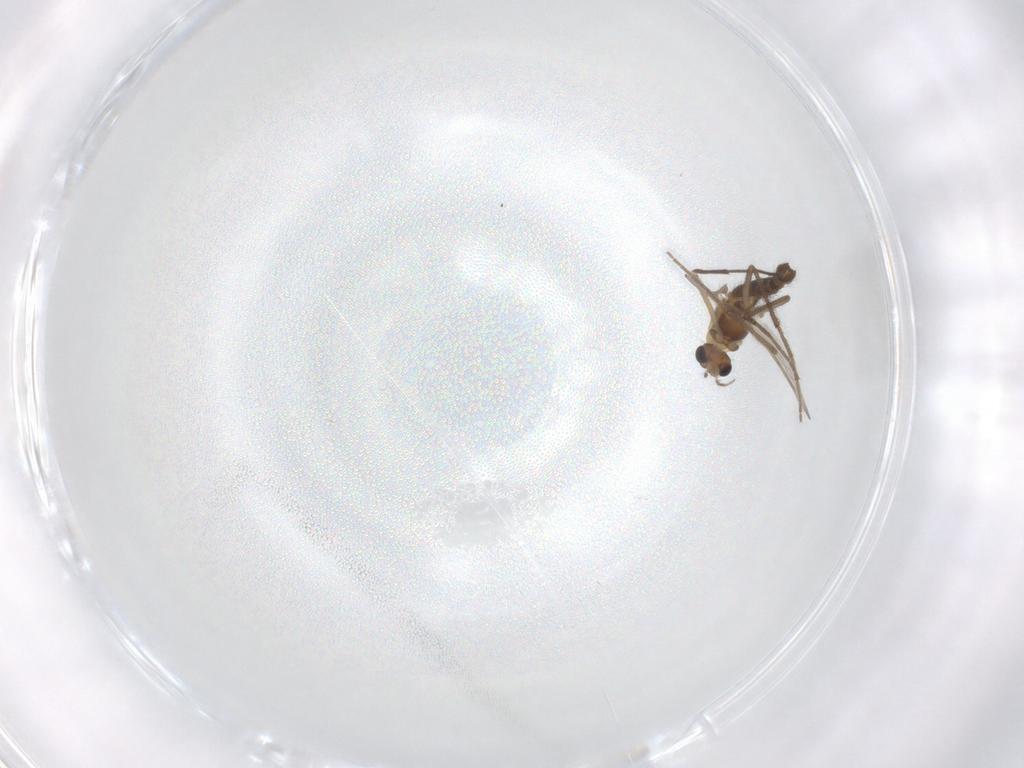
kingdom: Animalia
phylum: Arthropoda
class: Insecta
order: Diptera
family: Chironomidae
